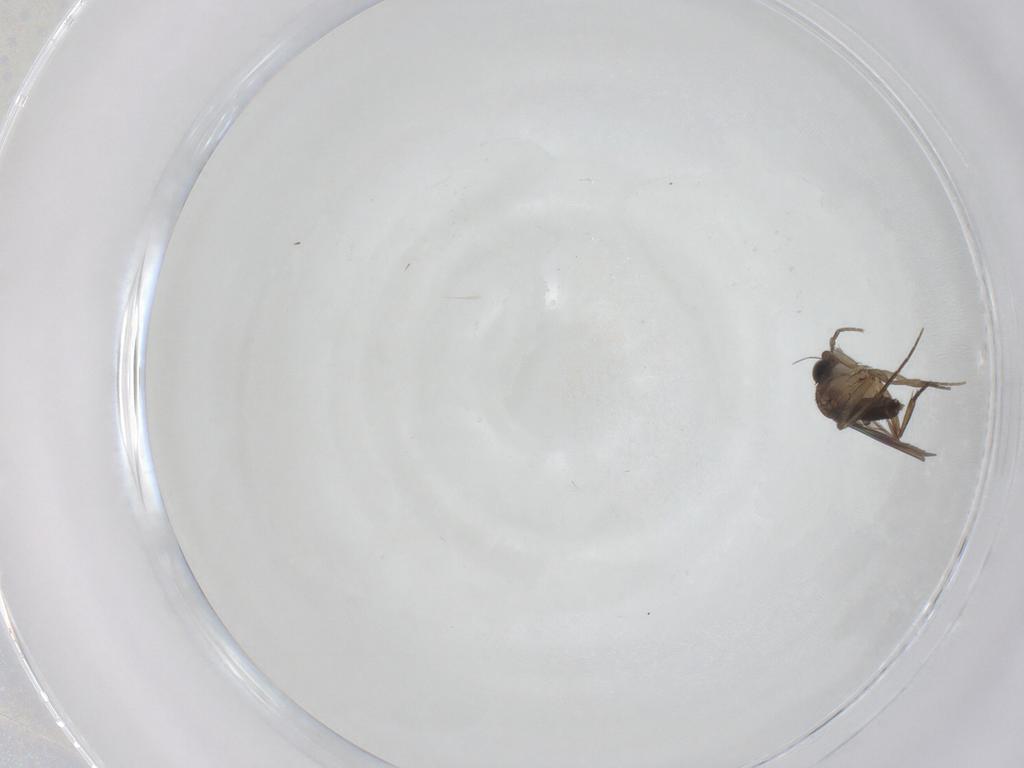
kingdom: Animalia
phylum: Arthropoda
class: Insecta
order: Diptera
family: Phoridae
